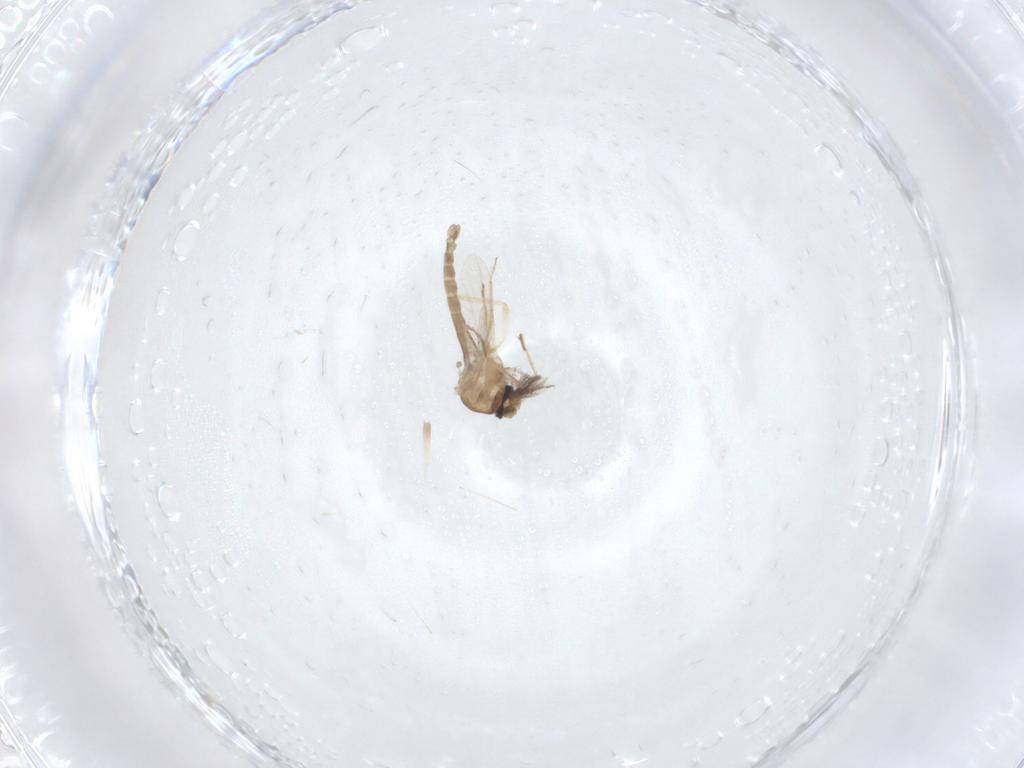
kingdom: Animalia
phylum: Arthropoda
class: Insecta
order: Diptera
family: Ceratopogonidae
